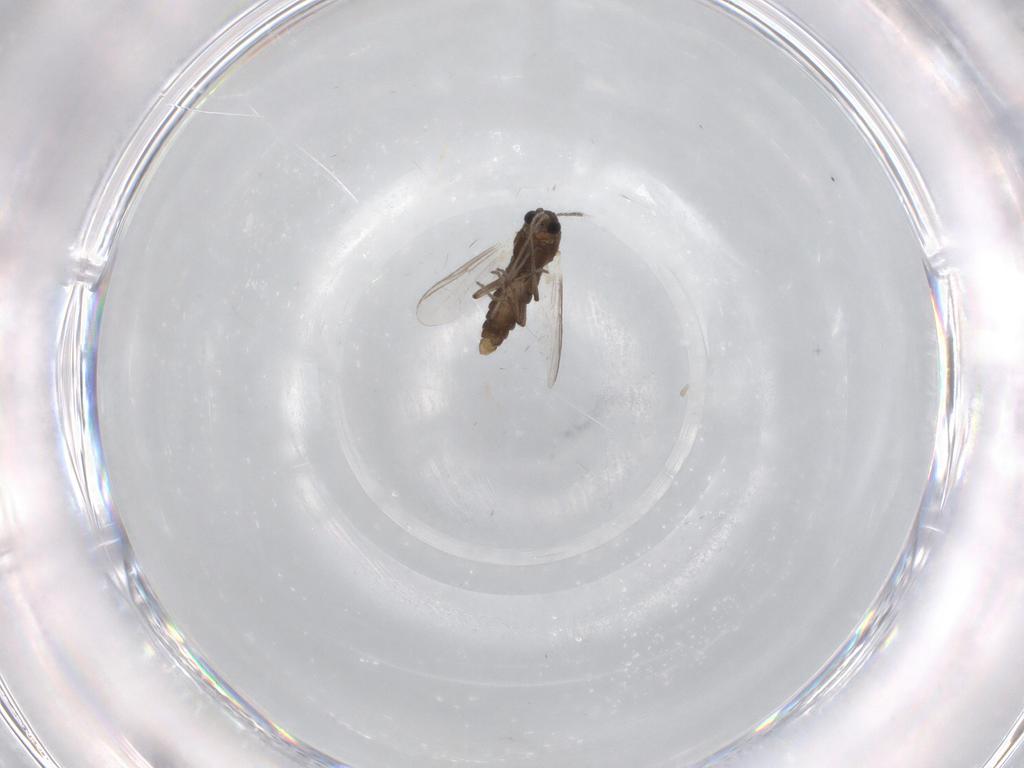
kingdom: Animalia
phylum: Arthropoda
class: Insecta
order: Diptera
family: Chironomidae
